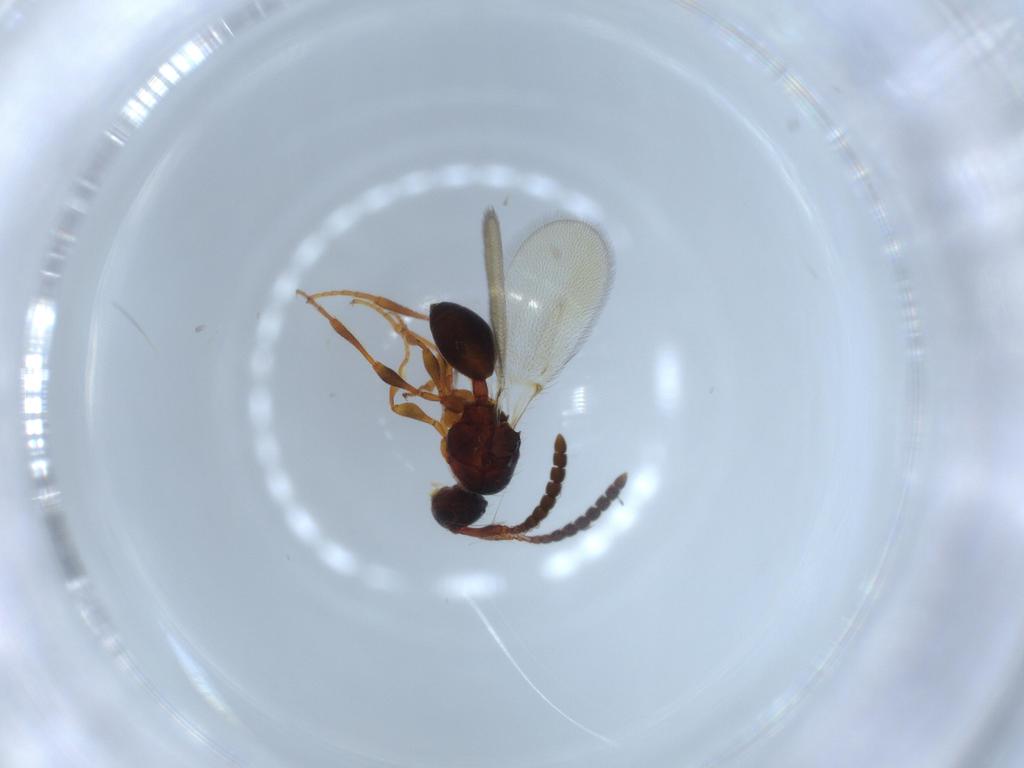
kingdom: Animalia
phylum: Arthropoda
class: Insecta
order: Hymenoptera
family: Diapriidae
